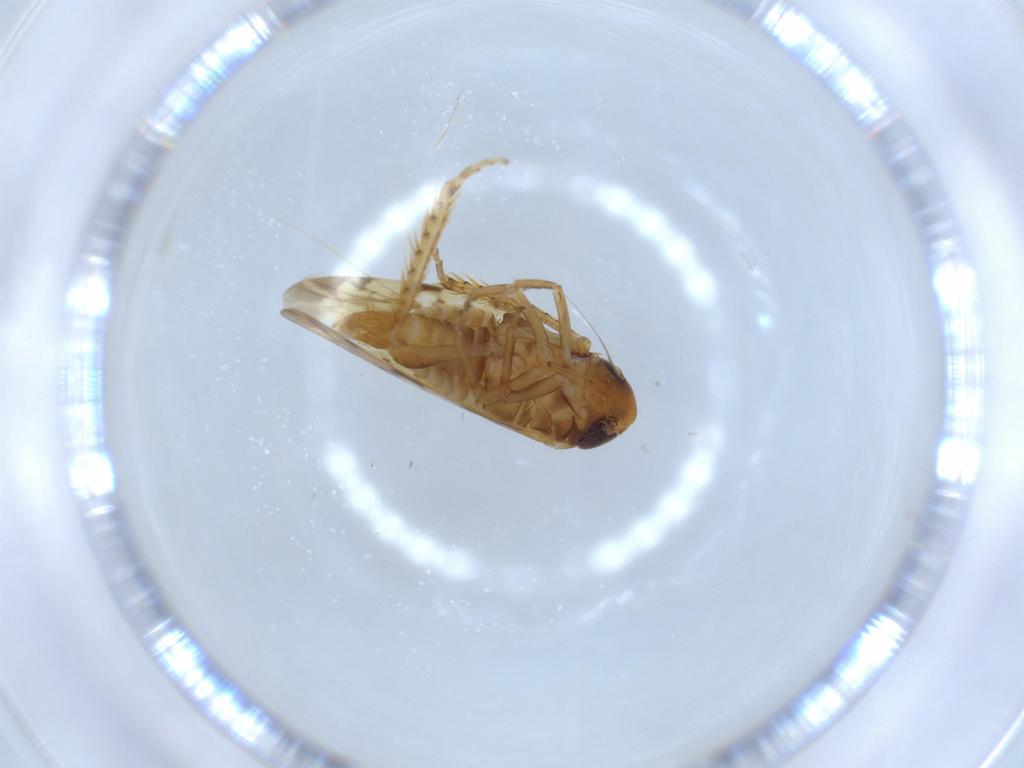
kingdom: Animalia
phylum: Arthropoda
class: Insecta
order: Hemiptera
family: Cicadellidae
